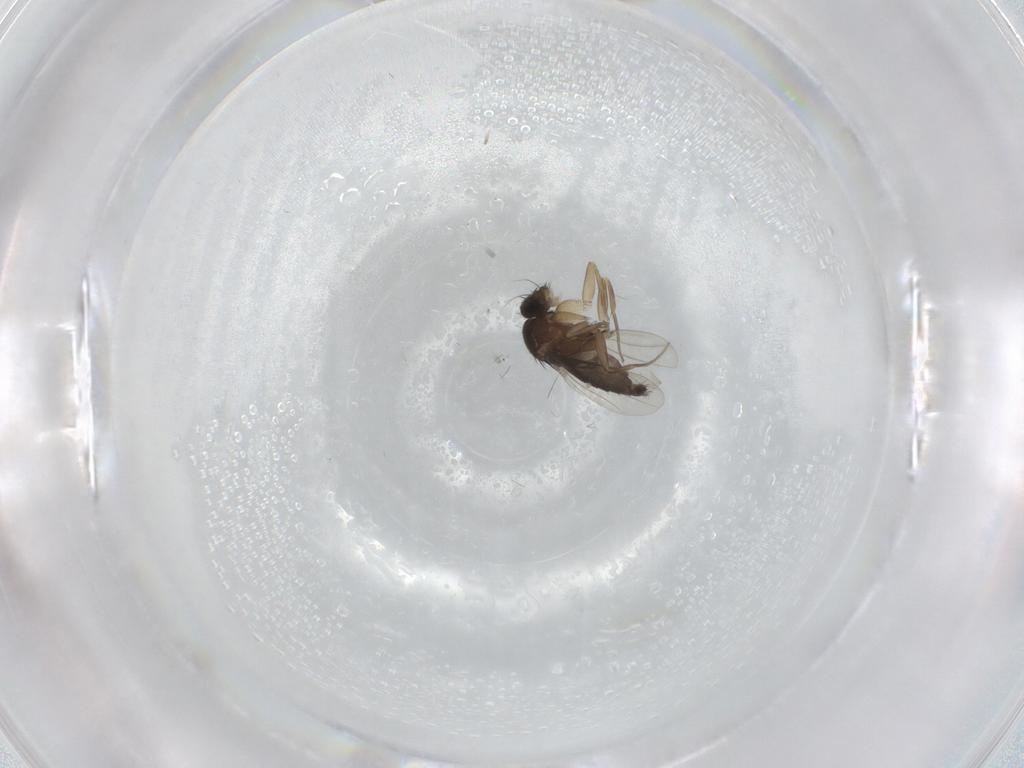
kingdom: Animalia
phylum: Arthropoda
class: Insecta
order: Diptera
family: Phoridae
